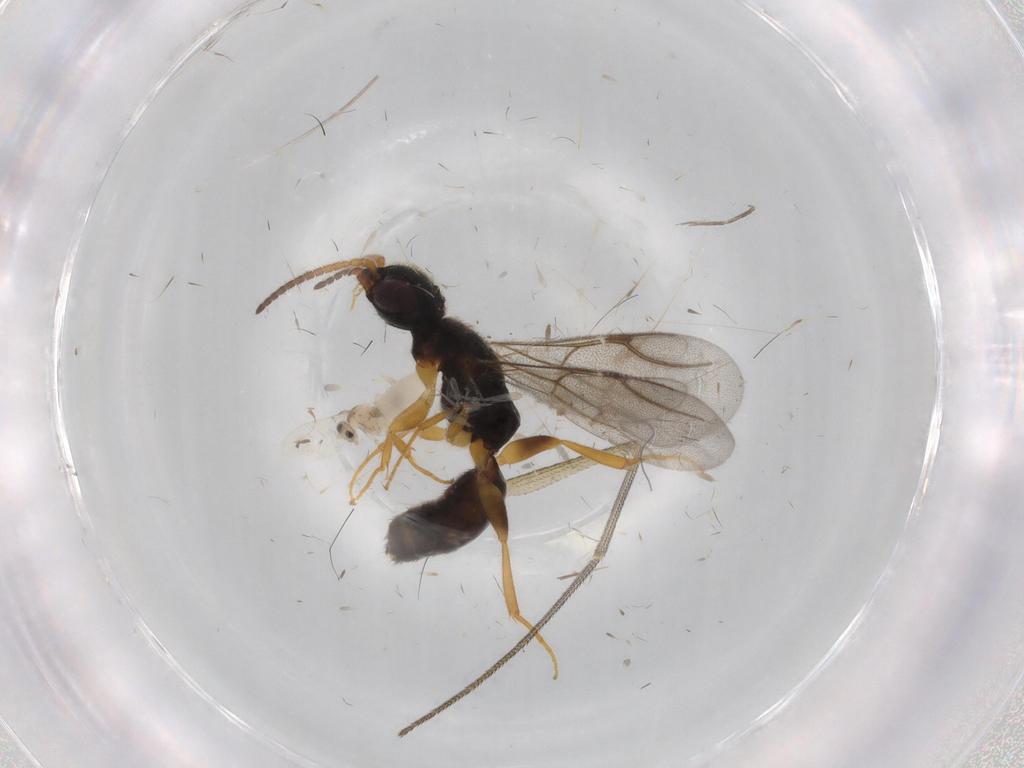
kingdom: Animalia
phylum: Arthropoda
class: Insecta
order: Hymenoptera
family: Bethylidae
